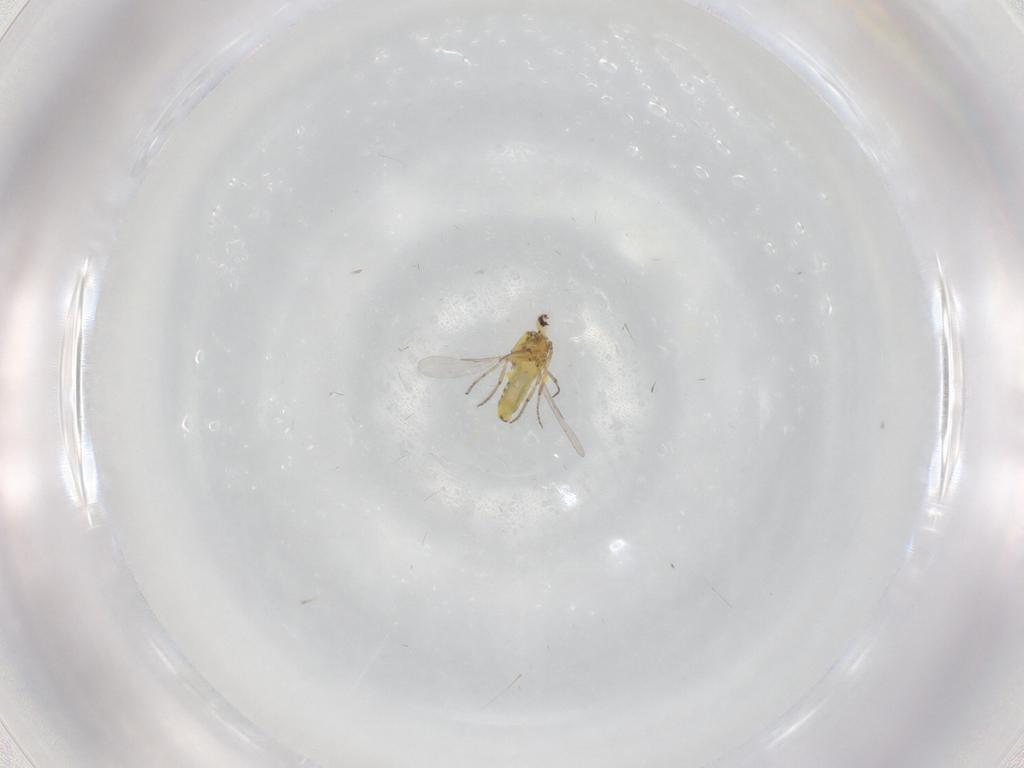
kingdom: Animalia
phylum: Arthropoda
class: Insecta
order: Diptera
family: Ceratopogonidae
